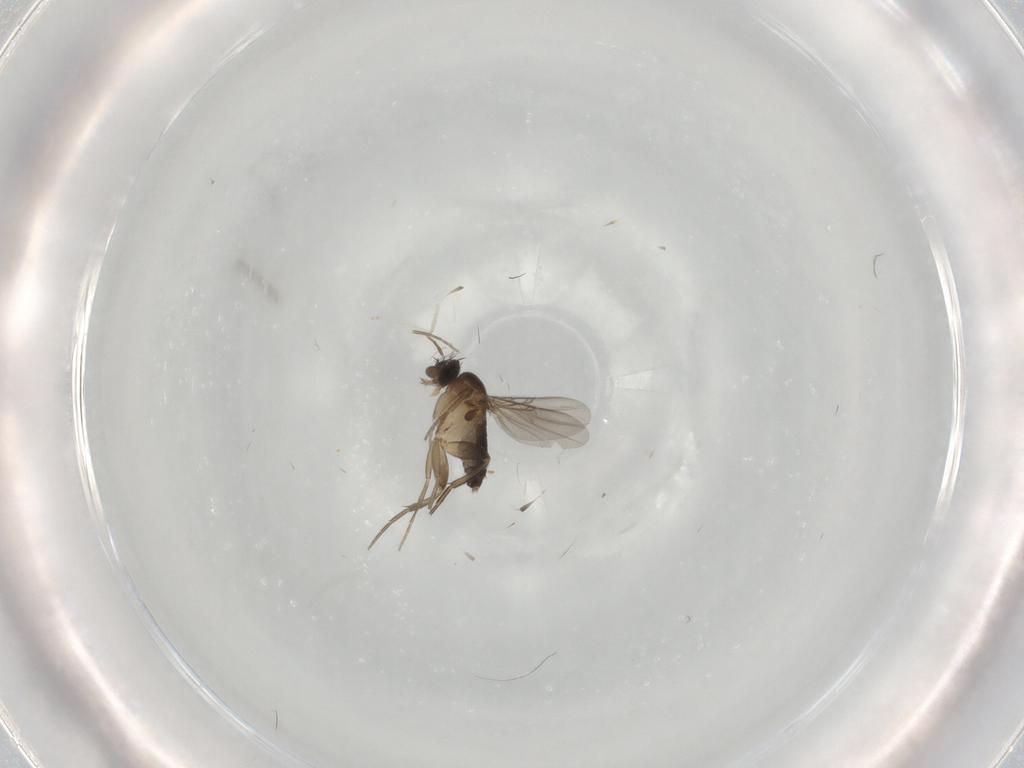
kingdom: Animalia
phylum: Arthropoda
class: Insecta
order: Diptera
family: Phoridae
